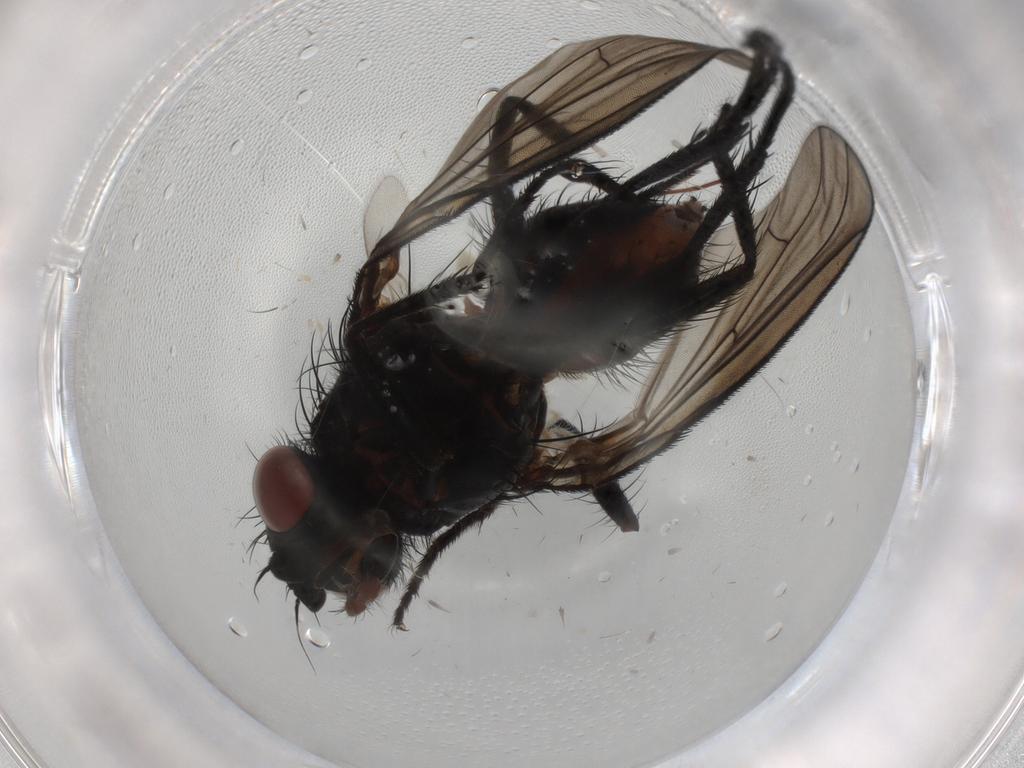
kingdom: Animalia
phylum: Arthropoda
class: Insecta
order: Diptera
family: Anthomyiidae
